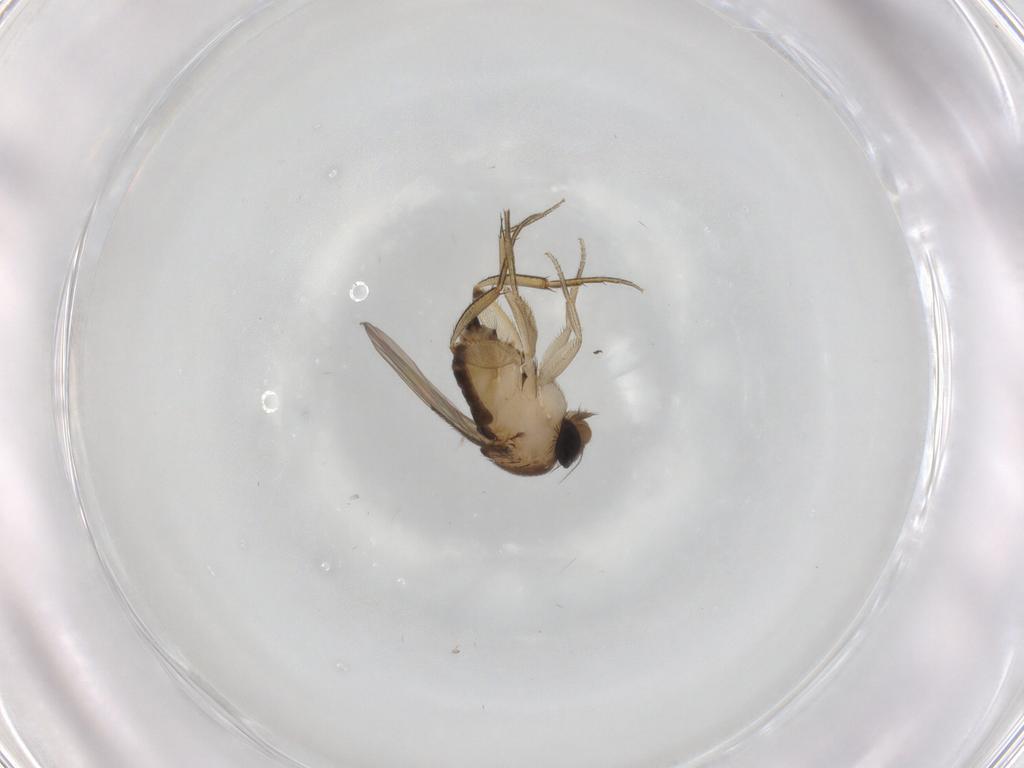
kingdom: Animalia
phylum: Arthropoda
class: Insecta
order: Diptera
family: Phoridae
